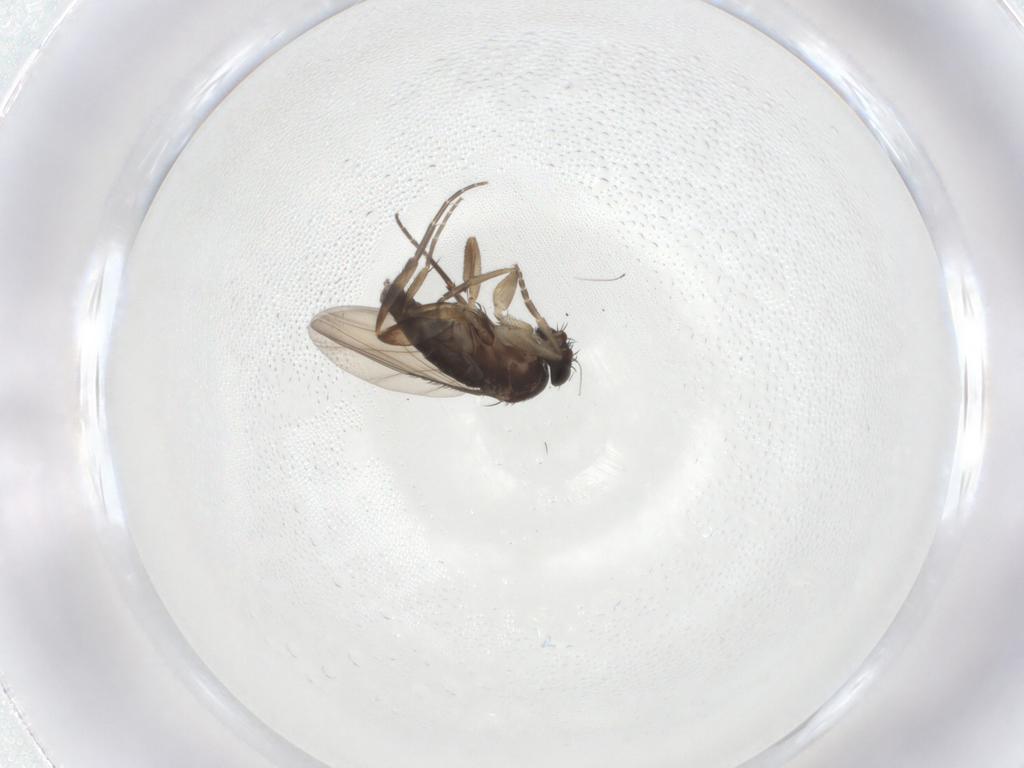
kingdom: Animalia
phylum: Arthropoda
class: Insecta
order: Diptera
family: Phoridae
